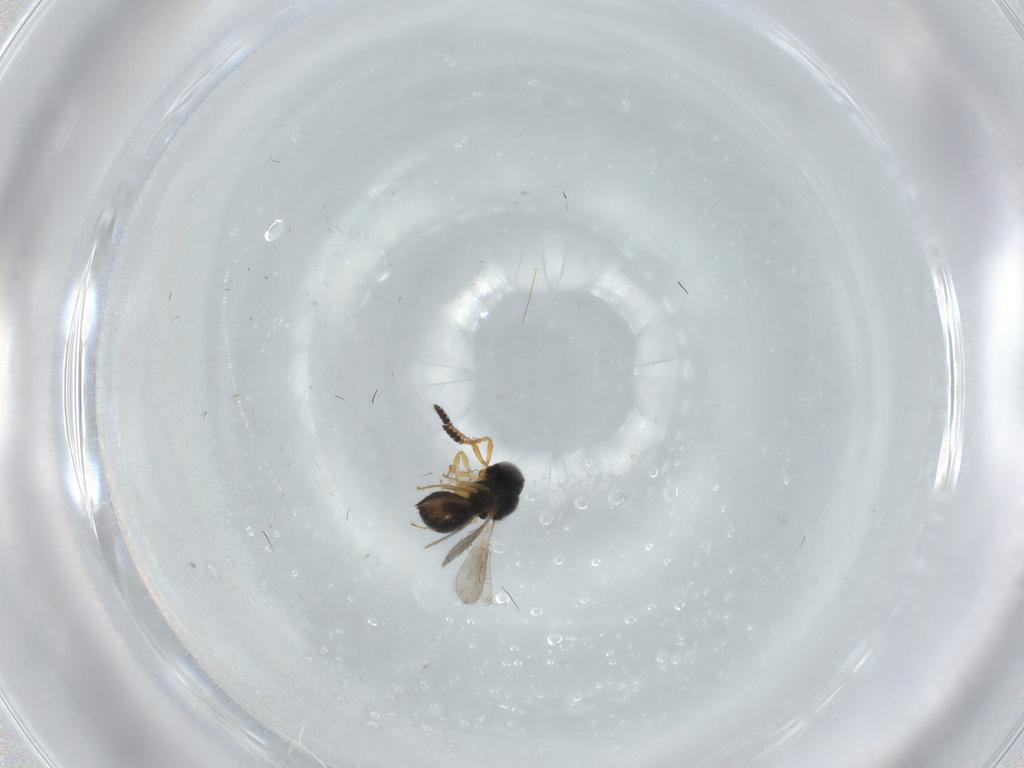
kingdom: Animalia
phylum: Arthropoda
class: Insecta
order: Hymenoptera
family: Scelionidae
